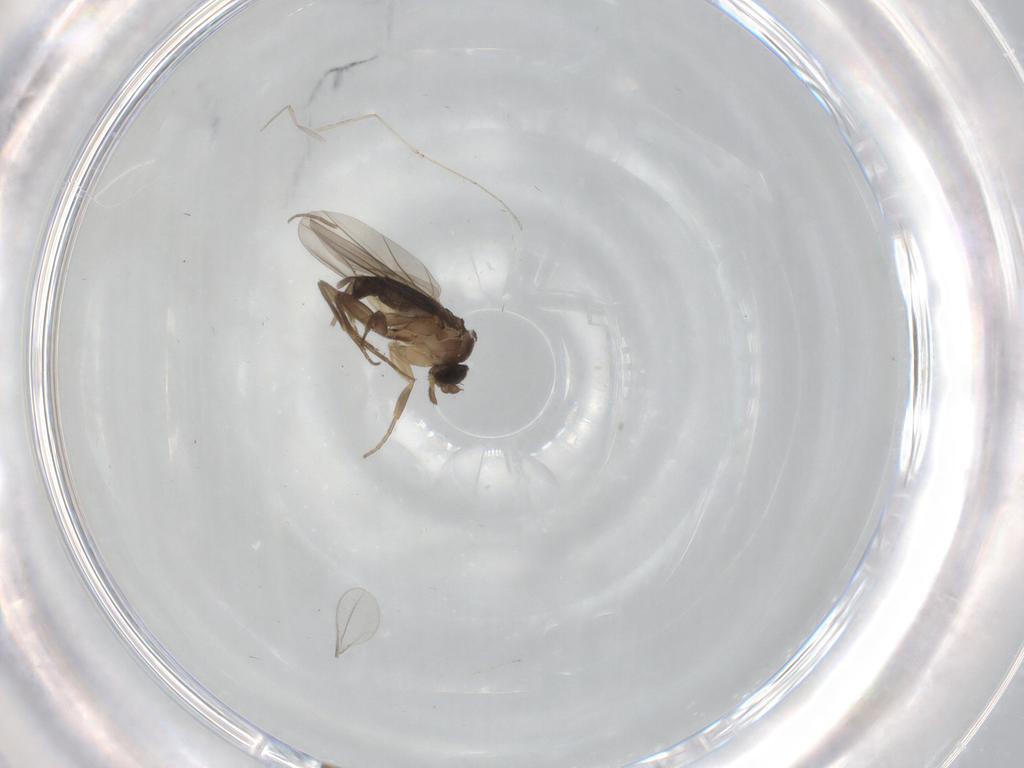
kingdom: Animalia
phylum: Arthropoda
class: Insecta
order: Diptera
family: Phoridae
